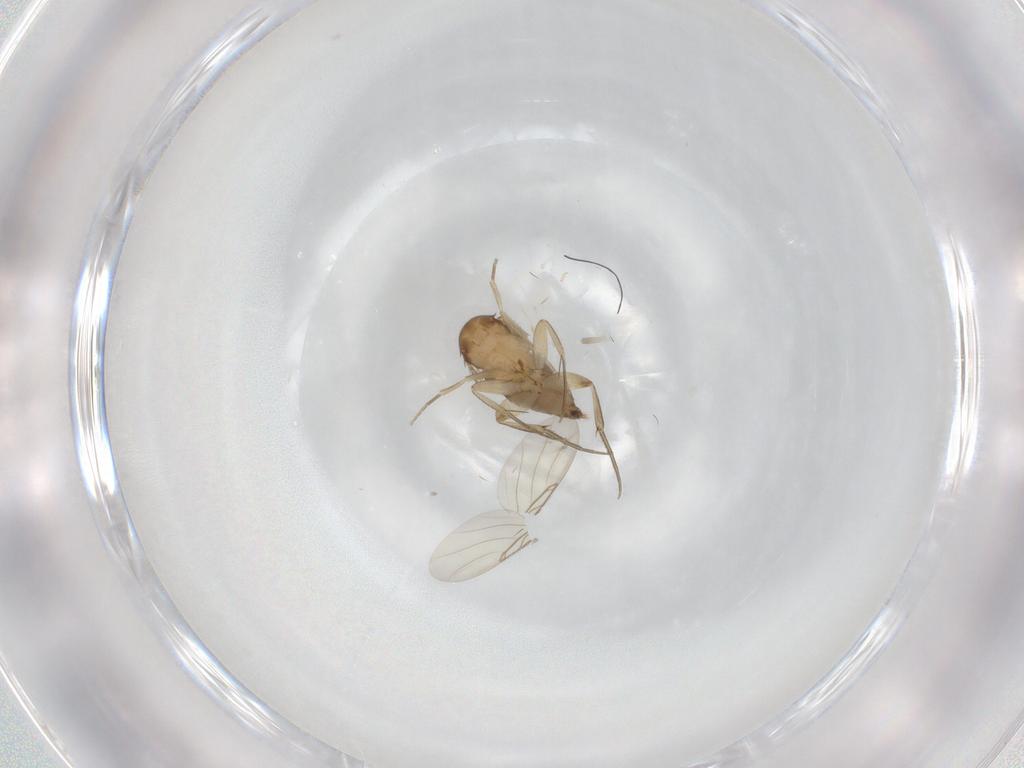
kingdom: Animalia
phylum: Arthropoda
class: Insecta
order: Diptera
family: Phoridae
